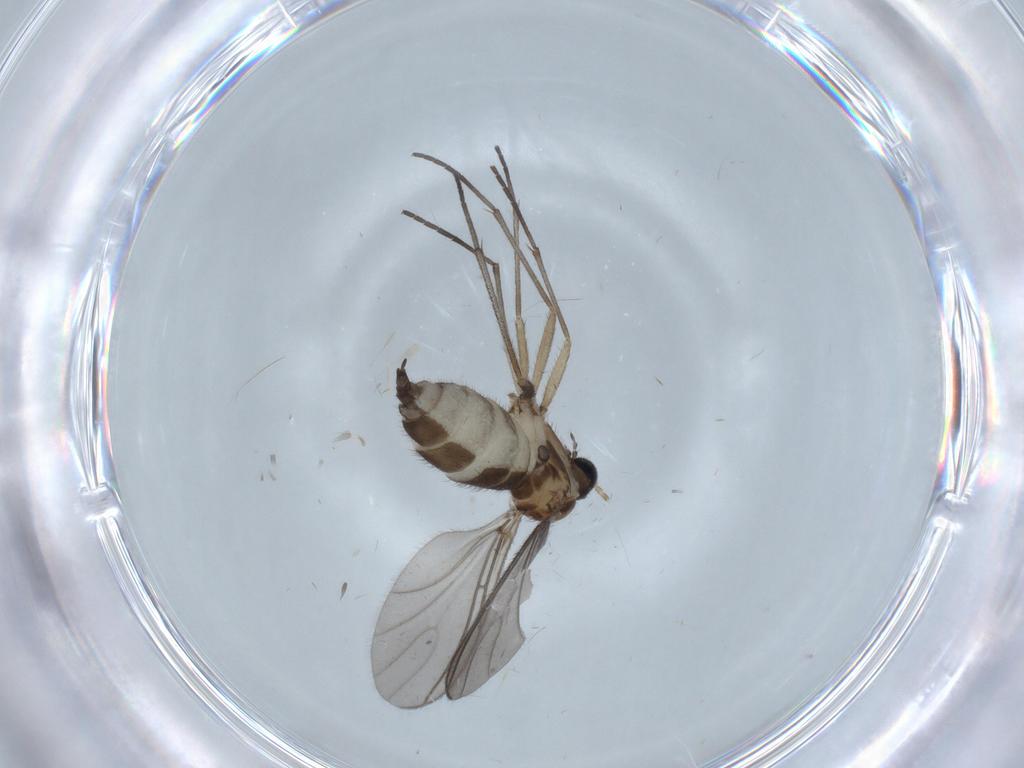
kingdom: Animalia
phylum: Arthropoda
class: Insecta
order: Diptera
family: Sciaridae
